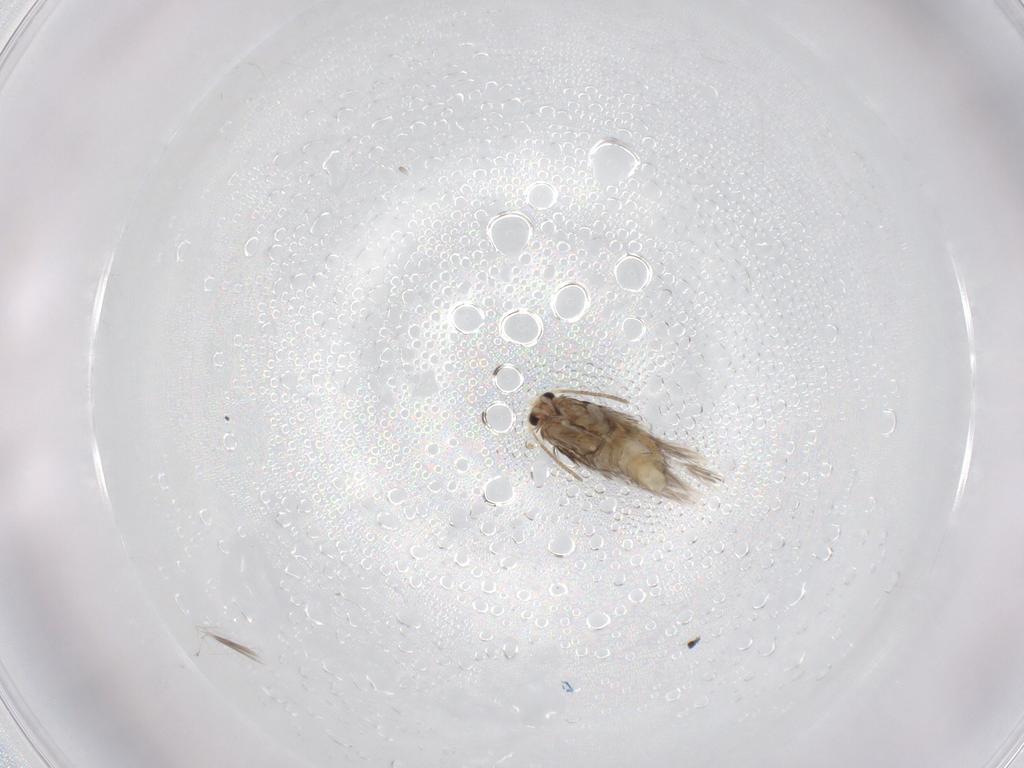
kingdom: Animalia
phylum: Arthropoda
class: Insecta
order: Lepidoptera
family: Nepticulidae
